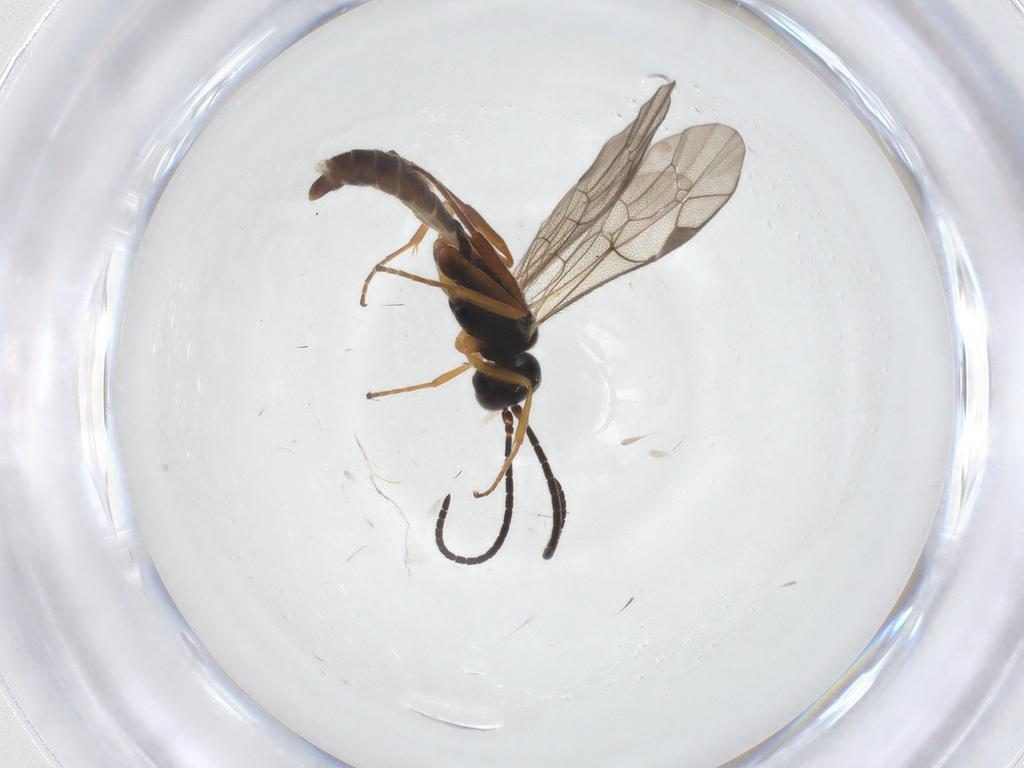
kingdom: Animalia
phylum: Arthropoda
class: Insecta
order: Hymenoptera
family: Ichneumonidae
